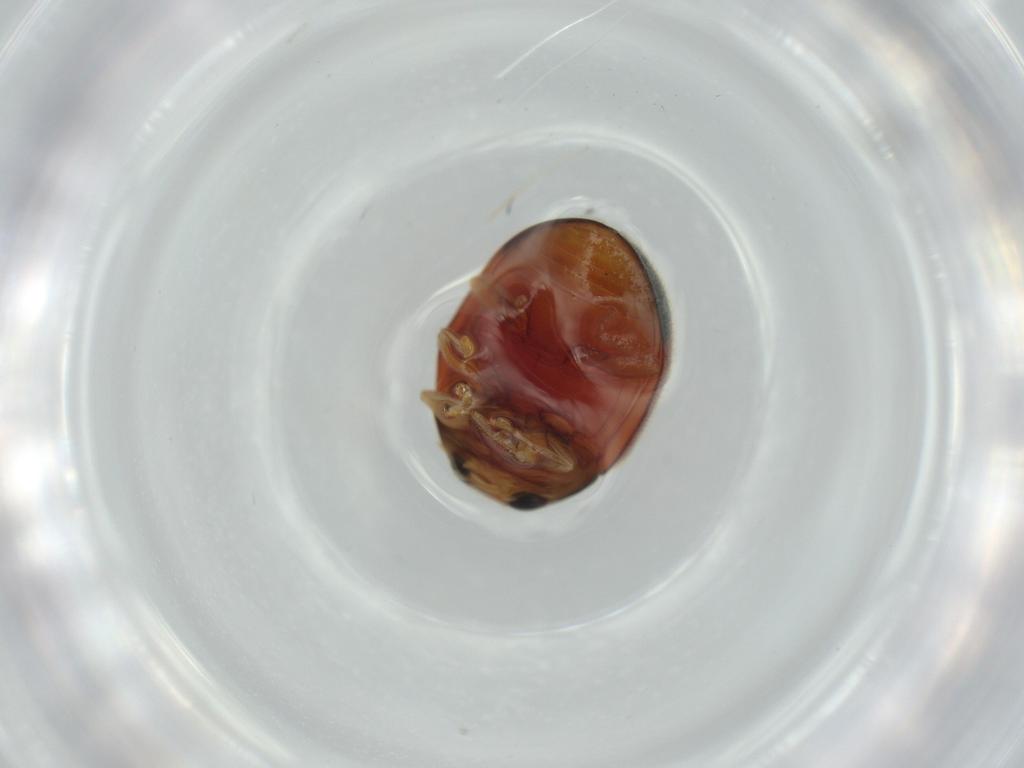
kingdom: Animalia
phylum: Arthropoda
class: Insecta
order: Coleoptera
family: Coccinellidae
